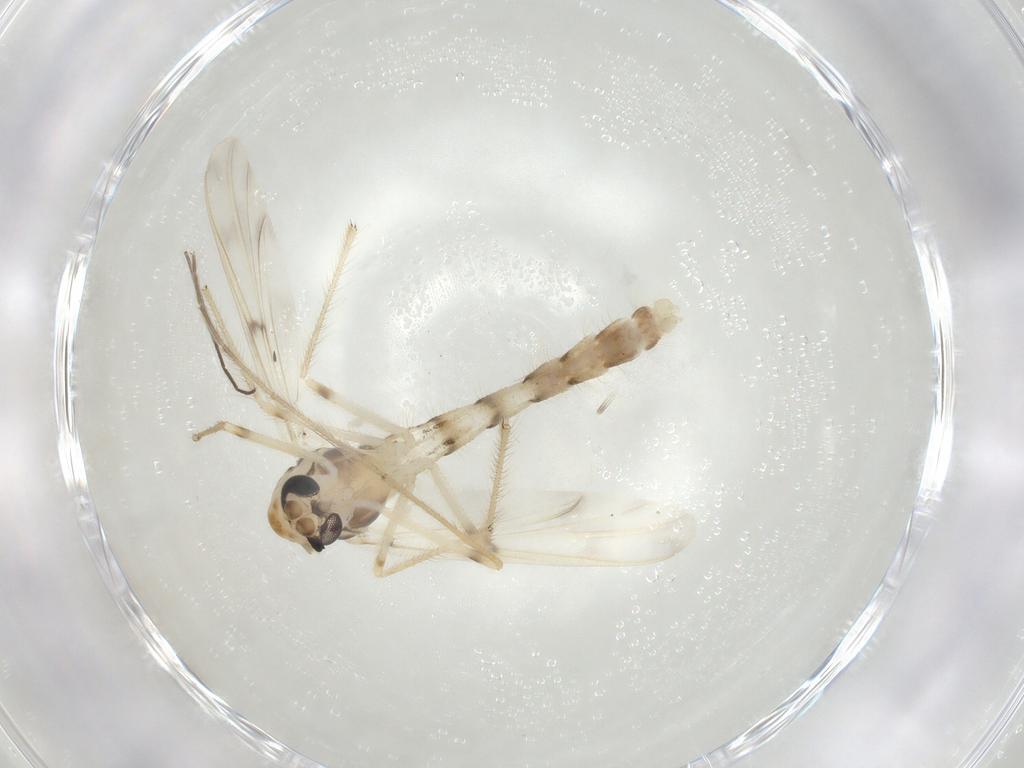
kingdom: Animalia
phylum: Arthropoda
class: Insecta
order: Diptera
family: Chironomidae
